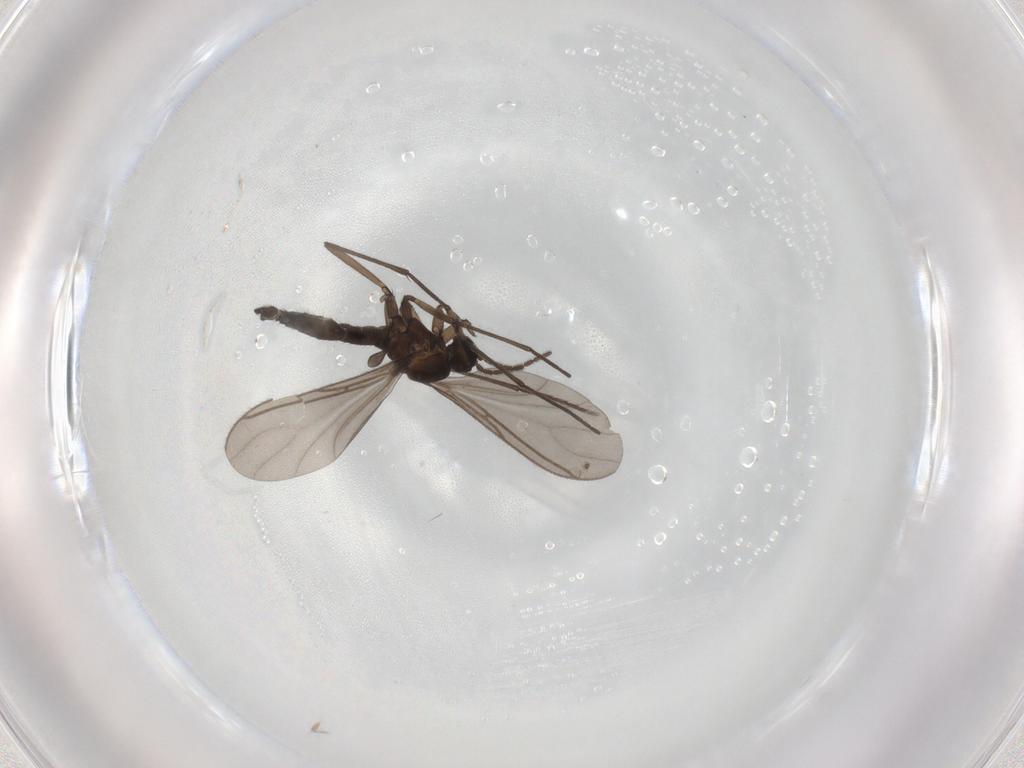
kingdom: Animalia
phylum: Arthropoda
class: Insecta
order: Diptera
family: Sciaridae
